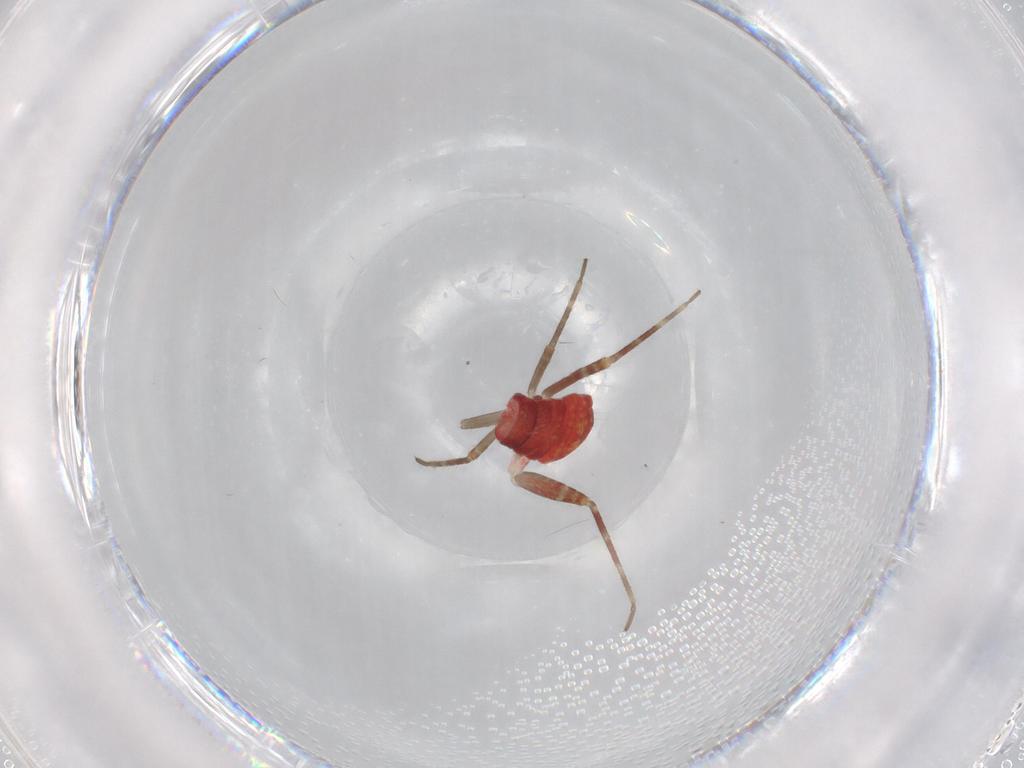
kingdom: Animalia
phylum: Arthropoda
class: Insecta
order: Hemiptera
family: Miridae
